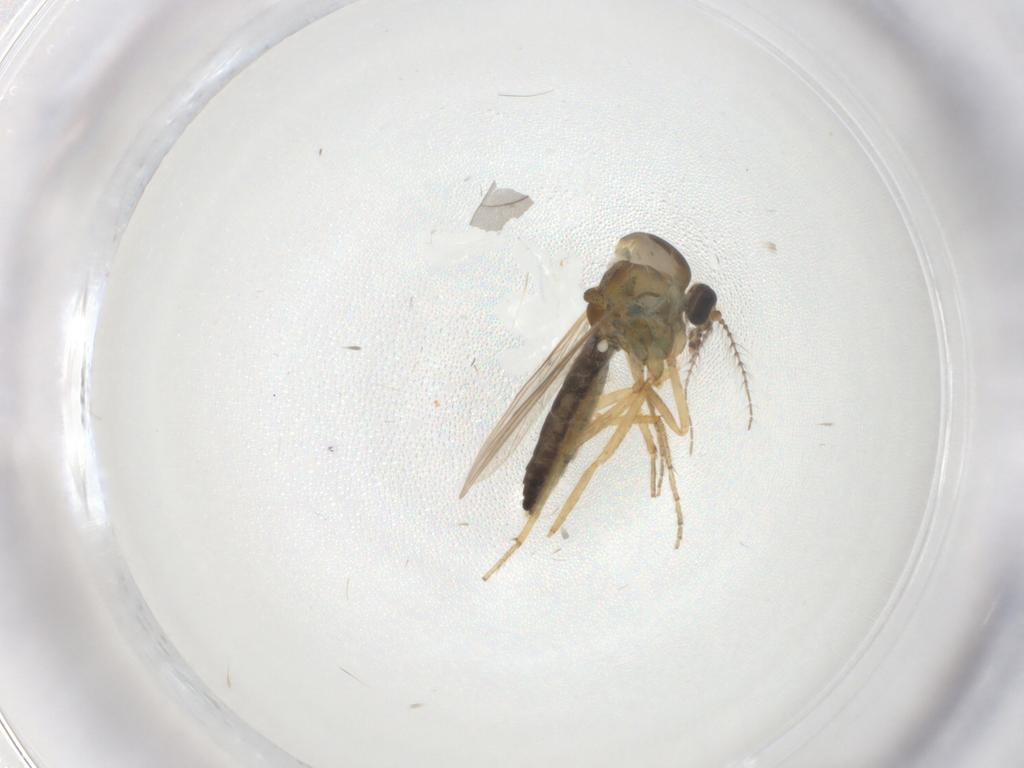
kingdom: Animalia
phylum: Arthropoda
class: Insecta
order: Diptera
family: Ceratopogonidae
